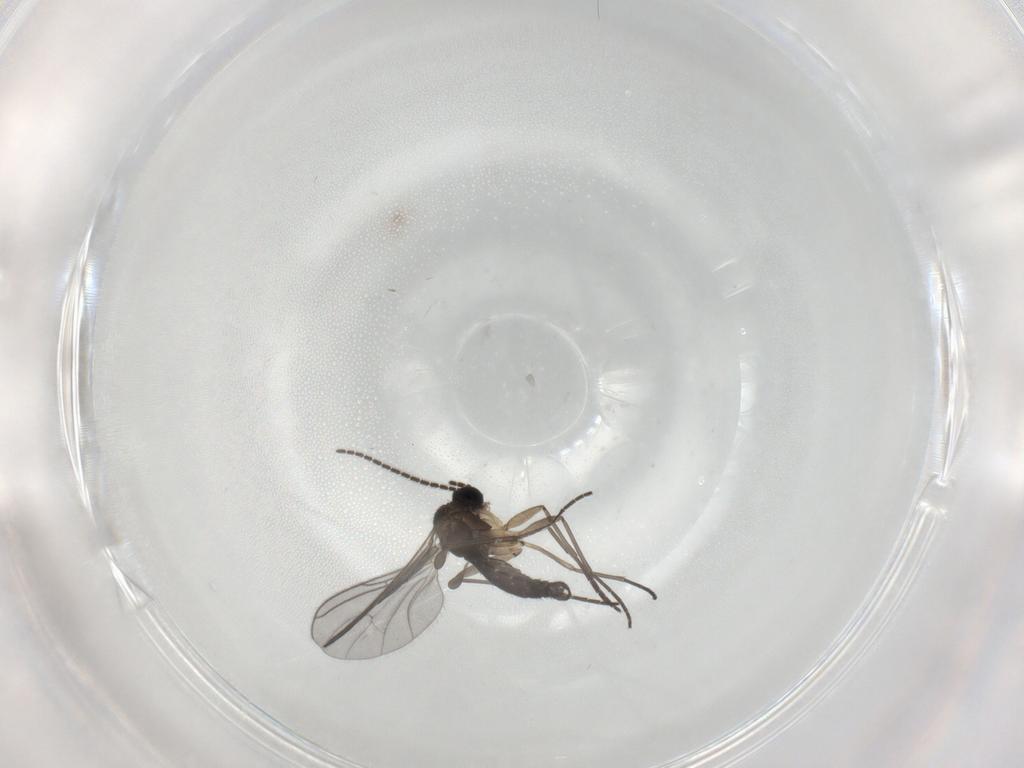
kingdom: Animalia
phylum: Arthropoda
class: Insecta
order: Diptera
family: Sciaridae
